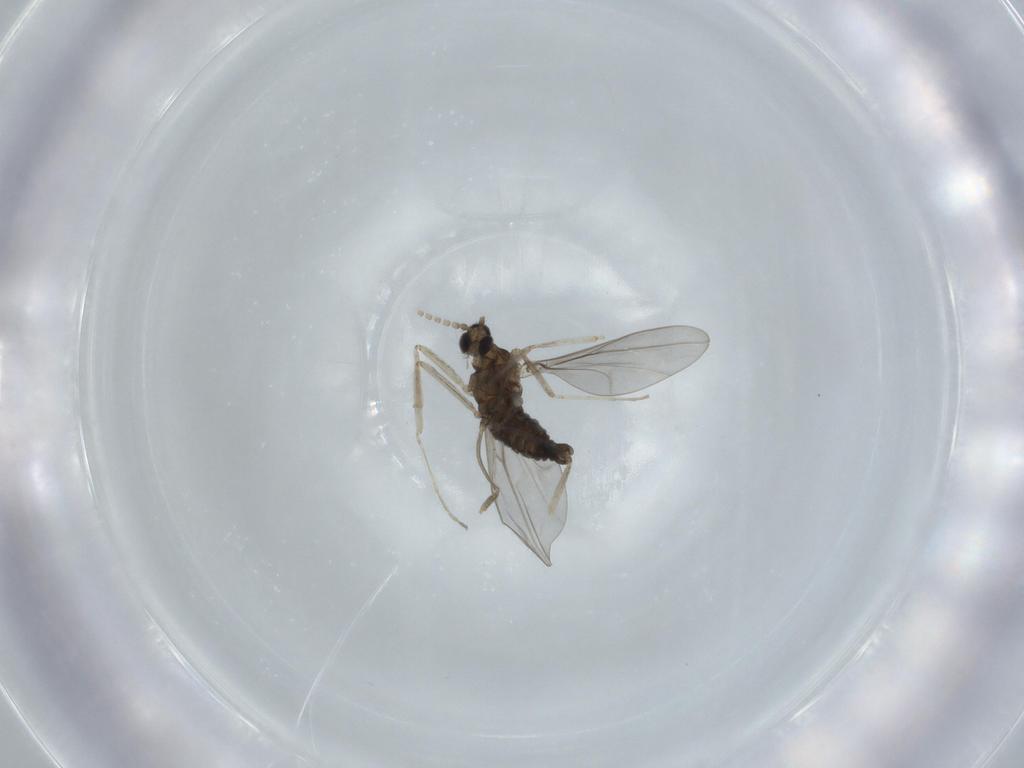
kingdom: Animalia
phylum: Arthropoda
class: Insecta
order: Diptera
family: Cecidomyiidae
